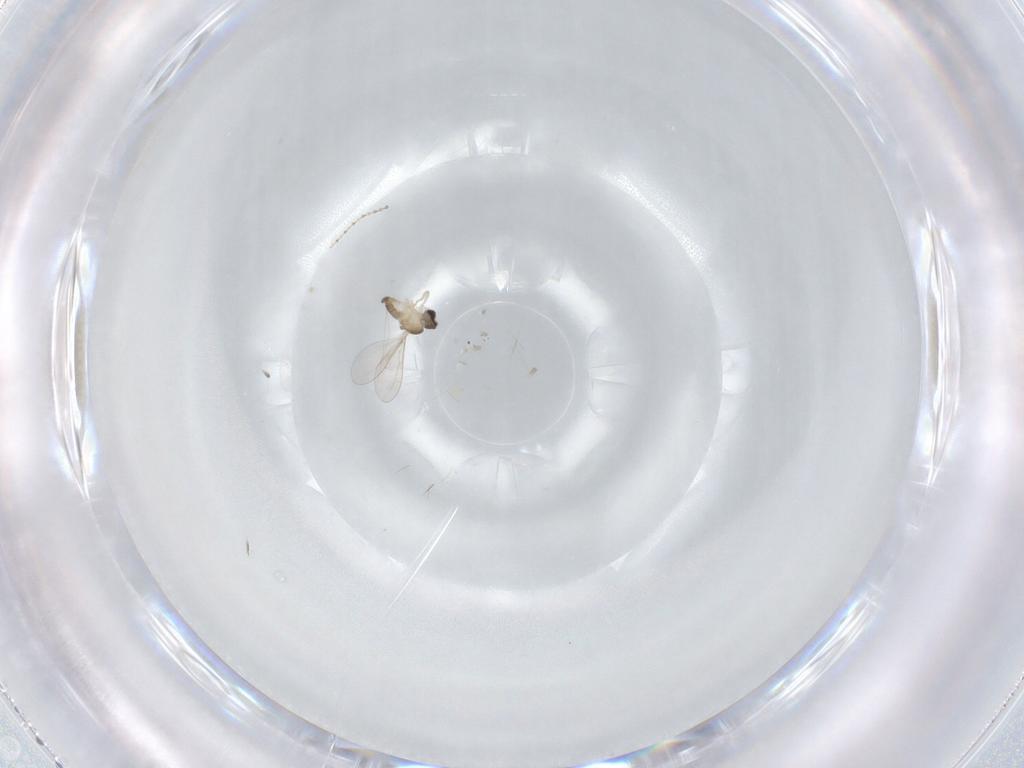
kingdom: Animalia
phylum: Arthropoda
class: Insecta
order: Diptera
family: Cecidomyiidae
